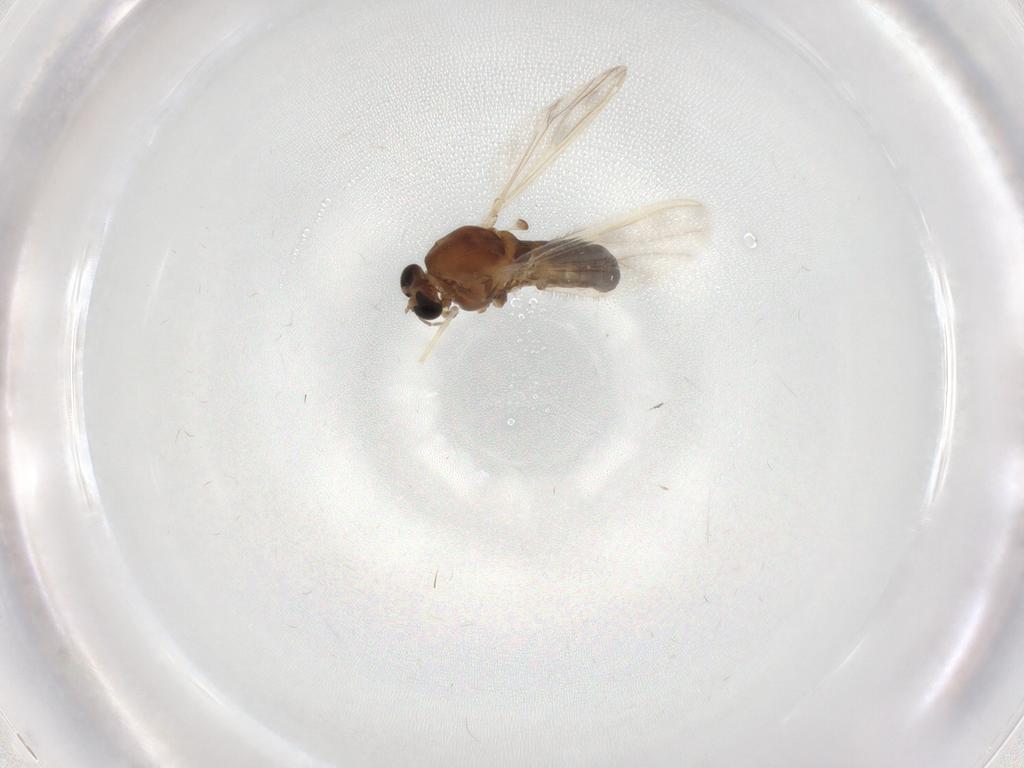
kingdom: Animalia
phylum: Arthropoda
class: Insecta
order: Diptera
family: Chironomidae
